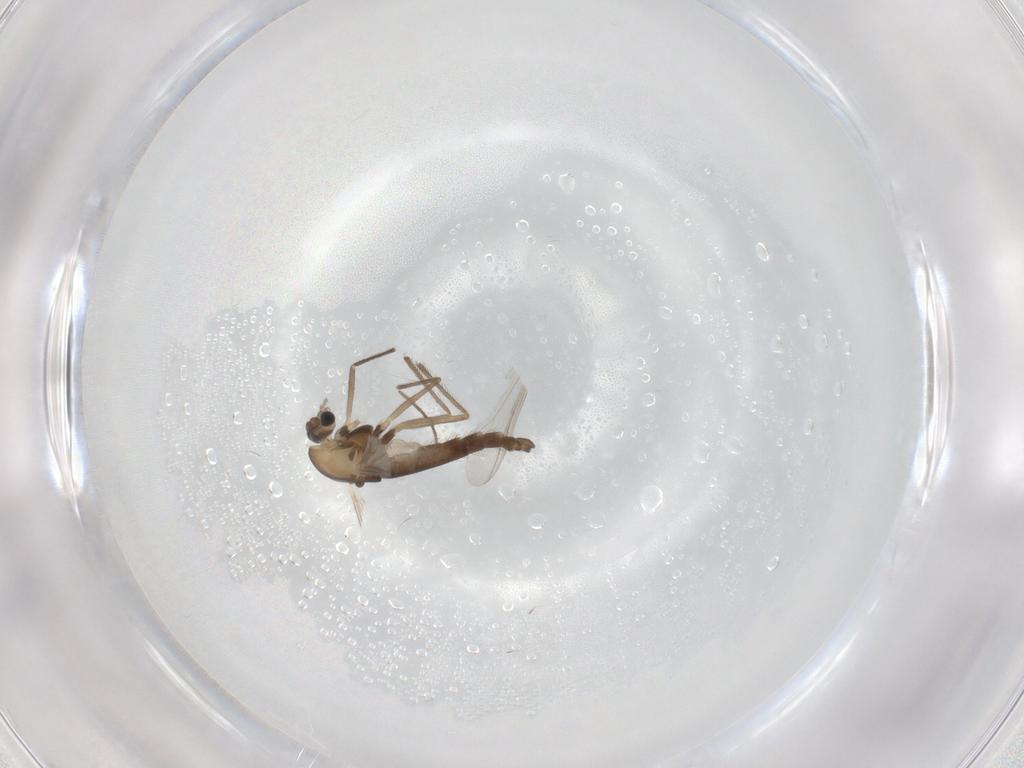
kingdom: Animalia
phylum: Arthropoda
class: Insecta
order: Diptera
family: Chironomidae
